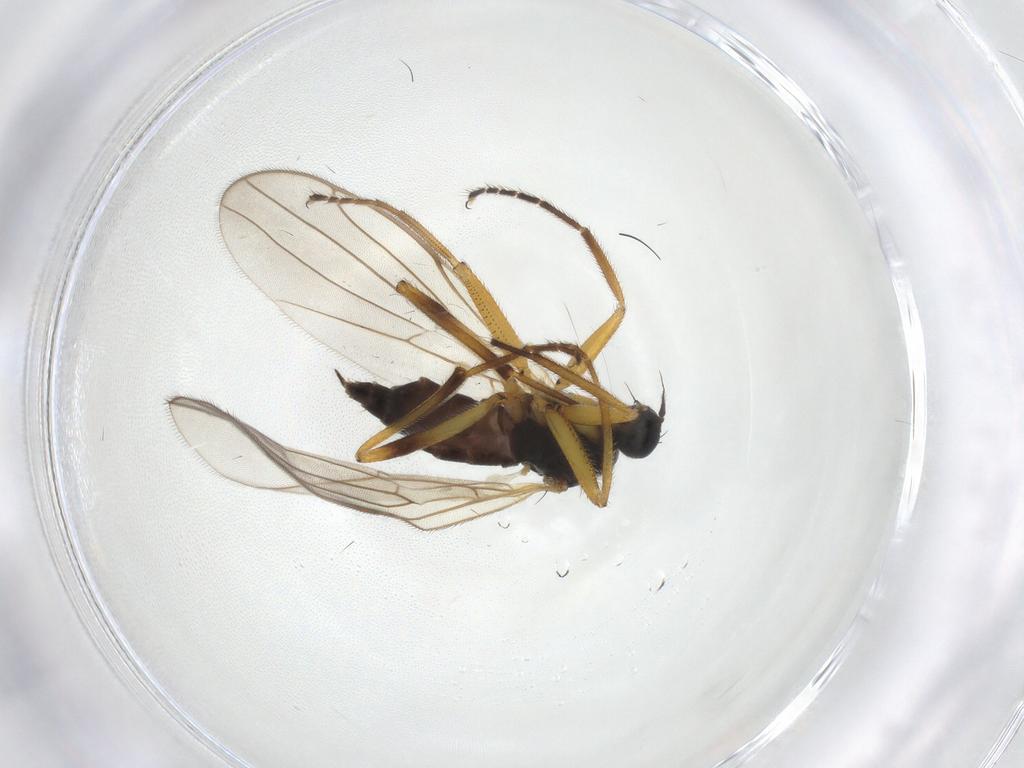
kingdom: Animalia
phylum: Arthropoda
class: Insecta
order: Diptera
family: Hybotidae
